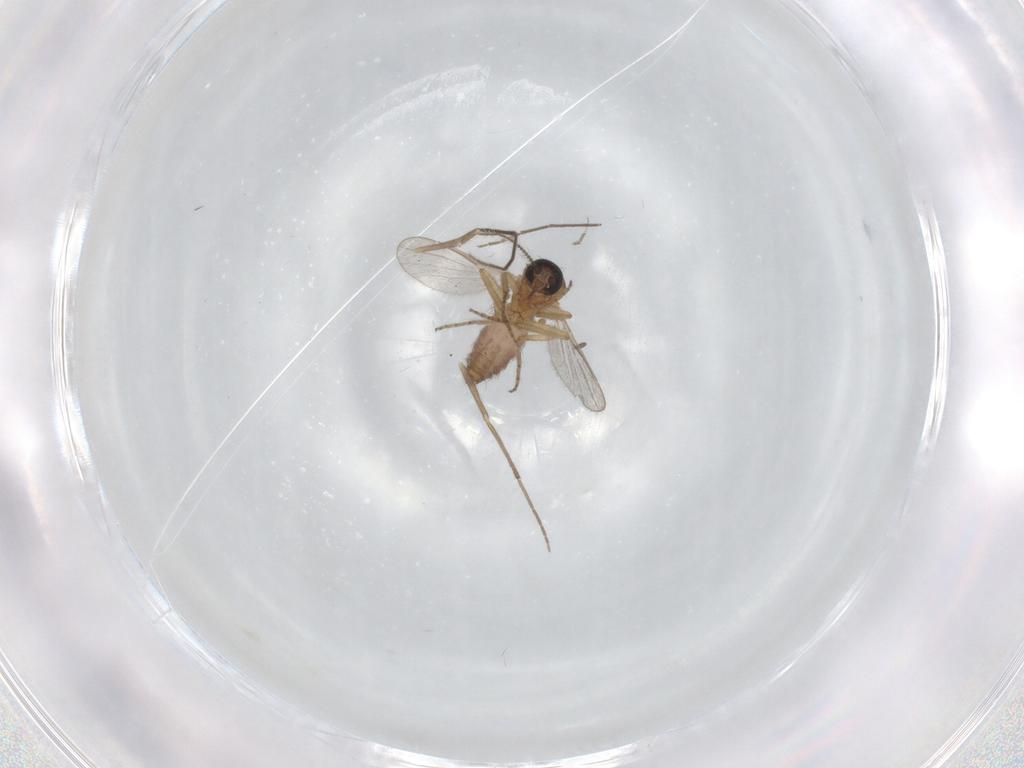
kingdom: Animalia
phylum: Arthropoda
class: Insecta
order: Diptera
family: Ceratopogonidae
